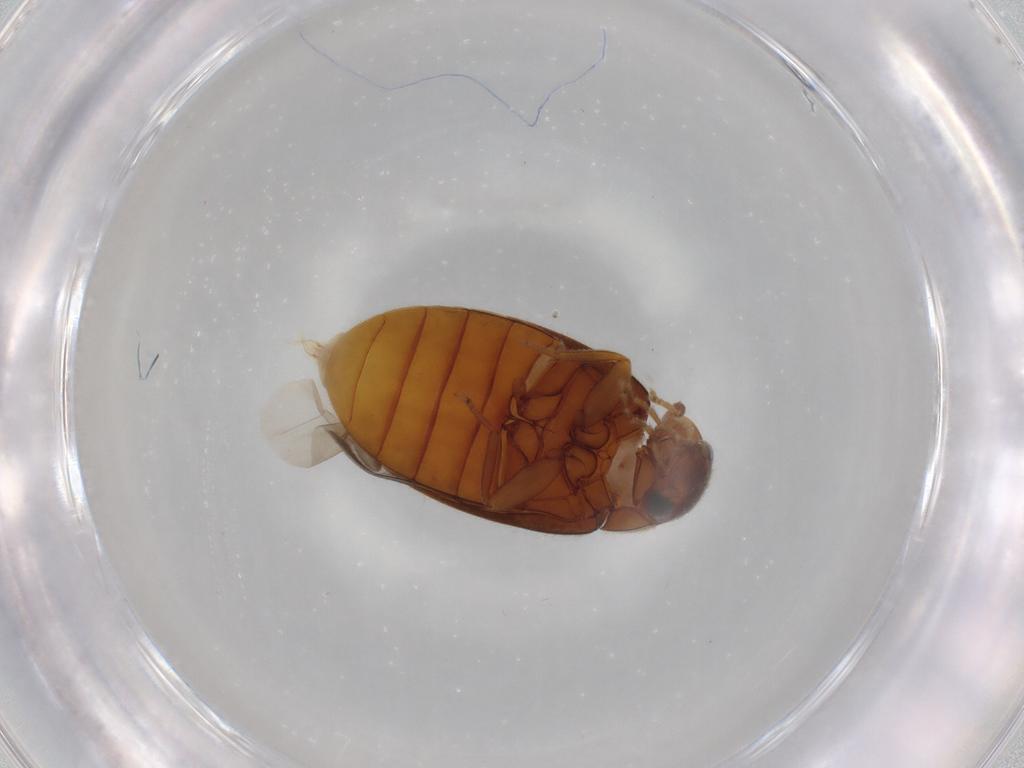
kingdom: Animalia
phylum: Arthropoda
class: Insecta
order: Coleoptera
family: Scirtidae
